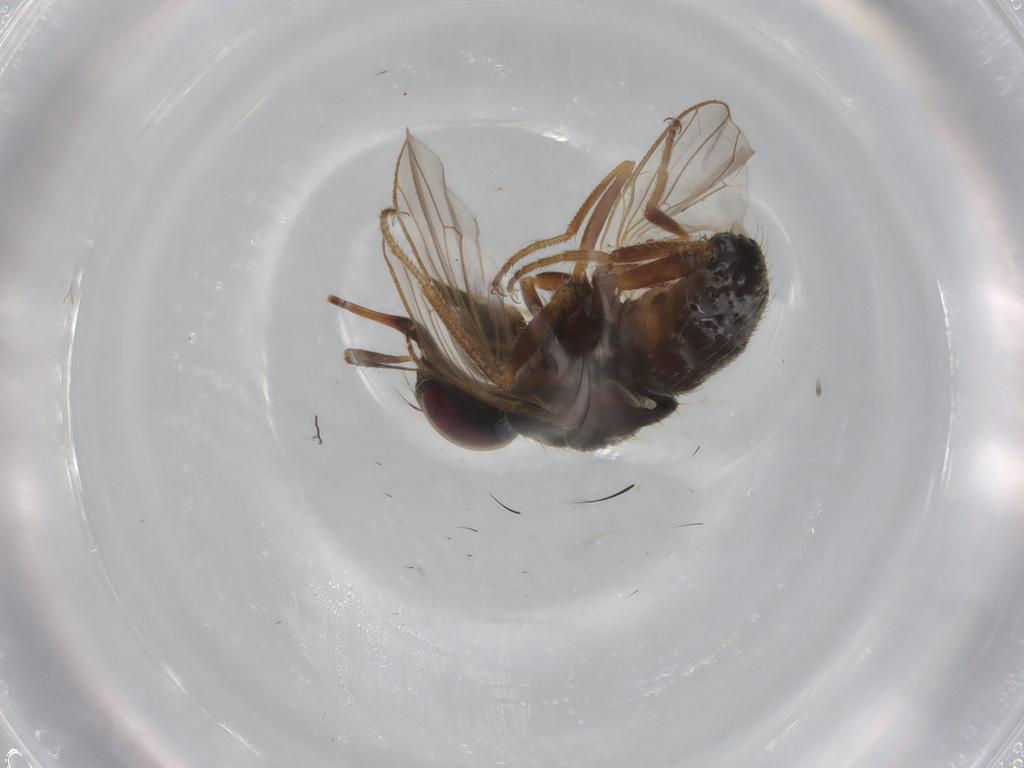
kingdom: Animalia
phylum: Arthropoda
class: Insecta
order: Diptera
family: Muscidae
